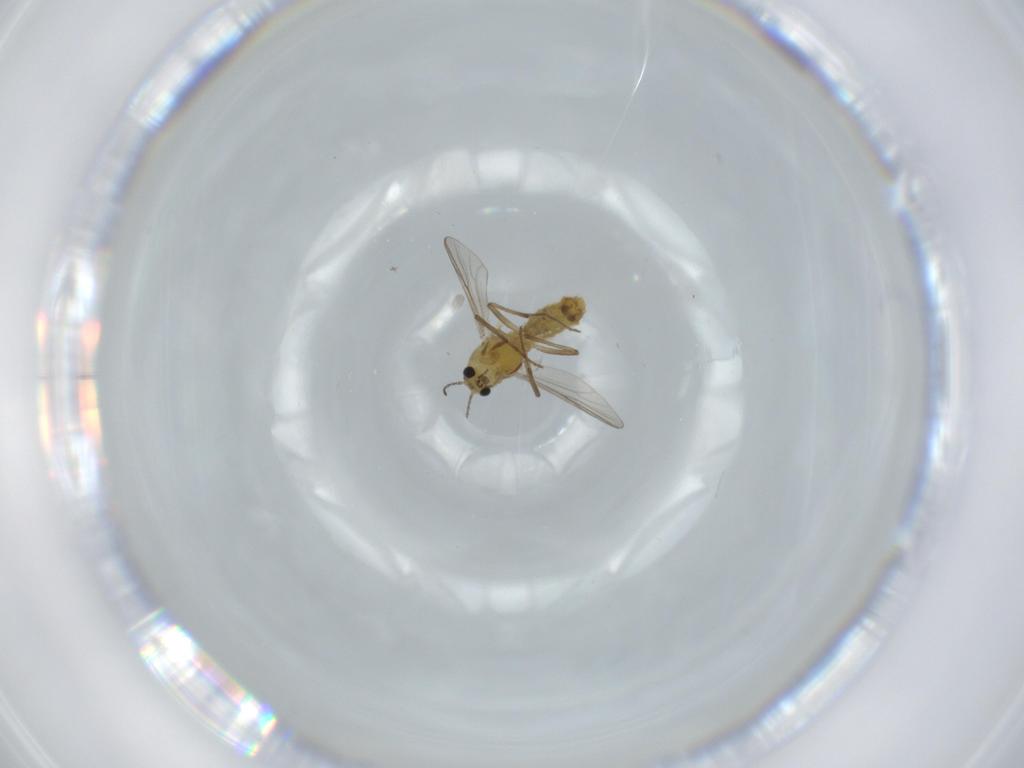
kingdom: Animalia
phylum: Arthropoda
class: Insecta
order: Diptera
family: Chironomidae
